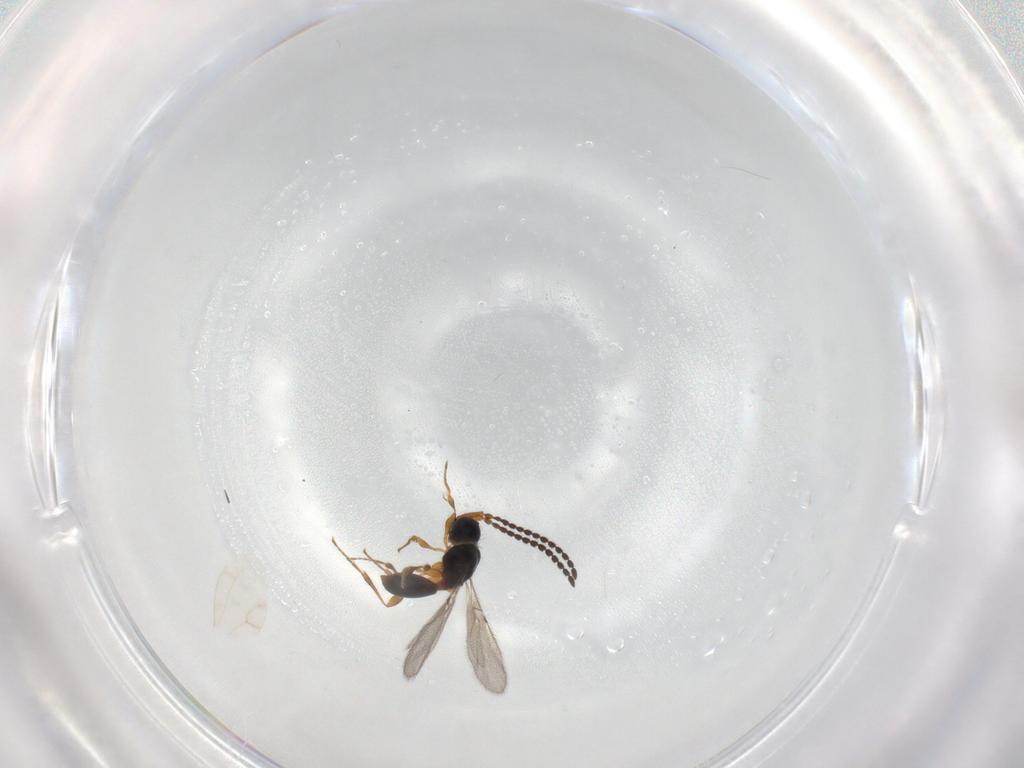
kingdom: Animalia
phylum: Arthropoda
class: Insecta
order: Hymenoptera
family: Diapriidae
